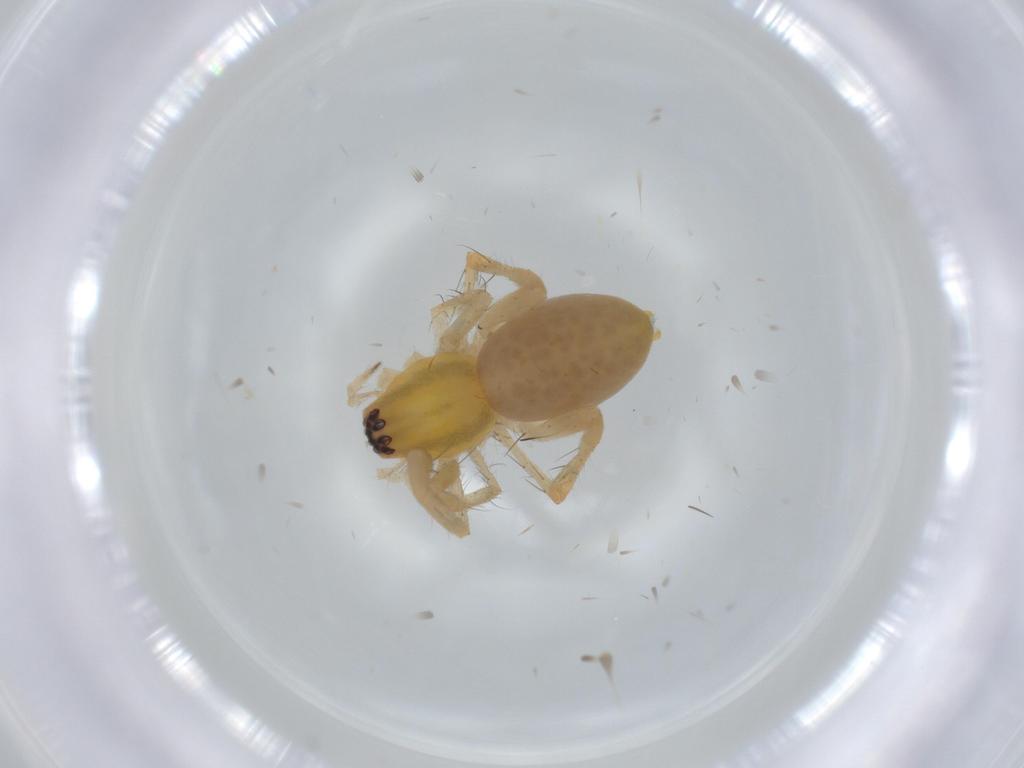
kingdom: Animalia
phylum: Arthropoda
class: Arachnida
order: Araneae
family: Anyphaenidae
